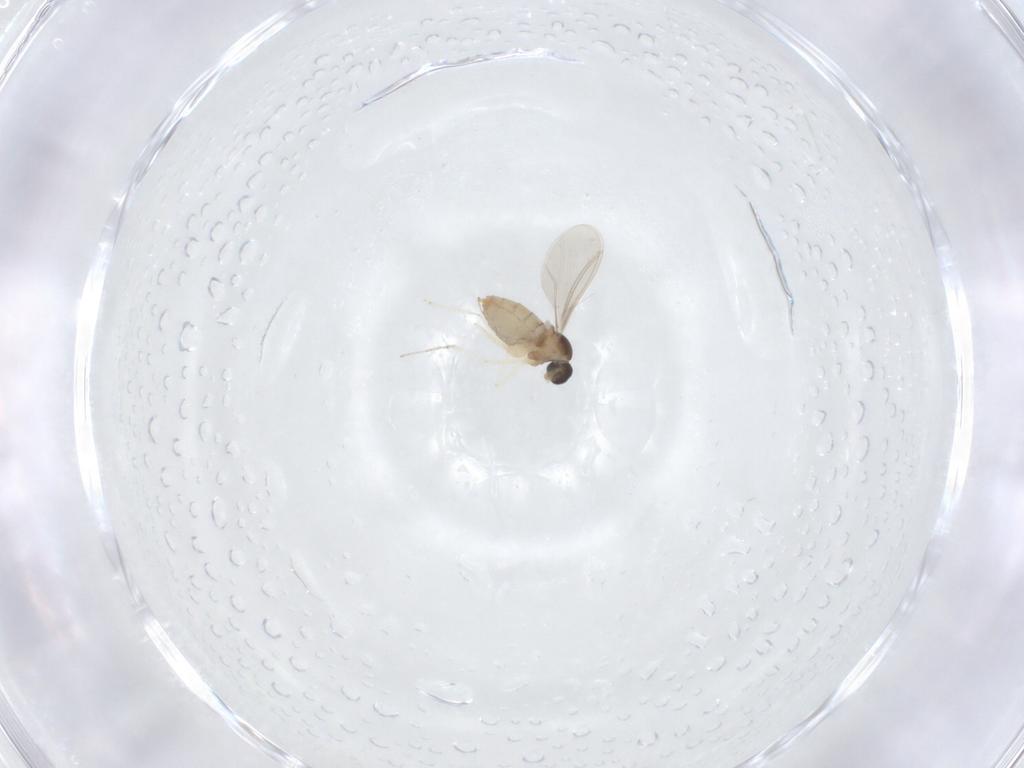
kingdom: Animalia
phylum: Arthropoda
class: Insecta
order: Diptera
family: Cecidomyiidae
